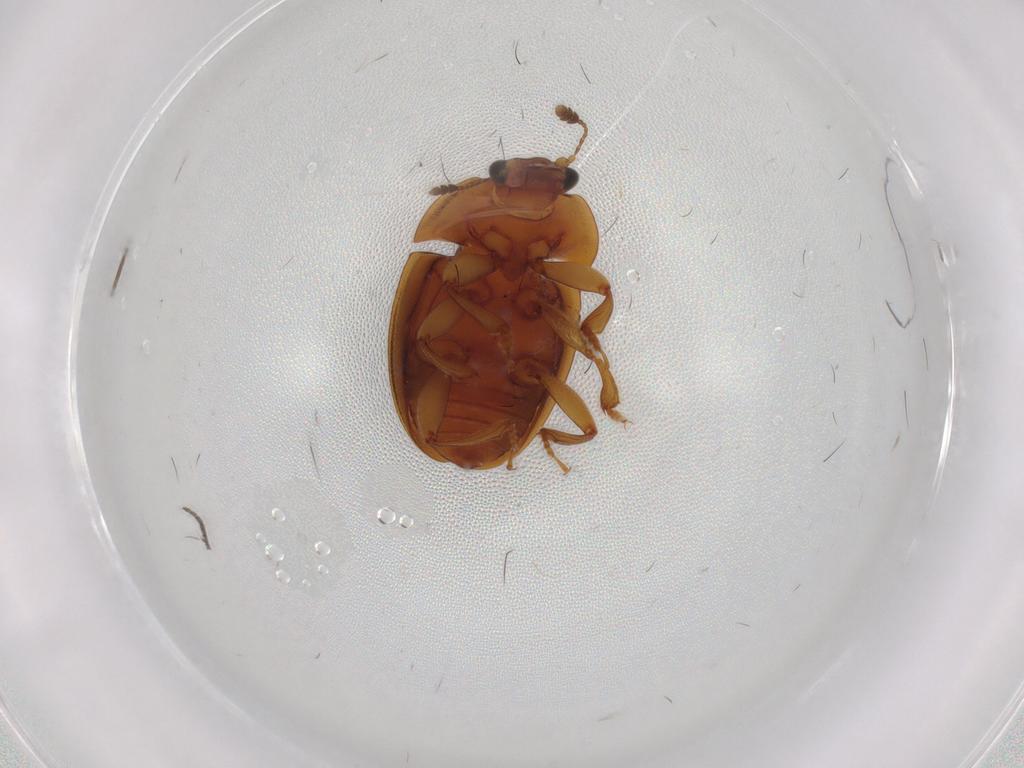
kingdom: Animalia
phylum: Arthropoda
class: Insecta
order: Coleoptera
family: Nitidulidae
